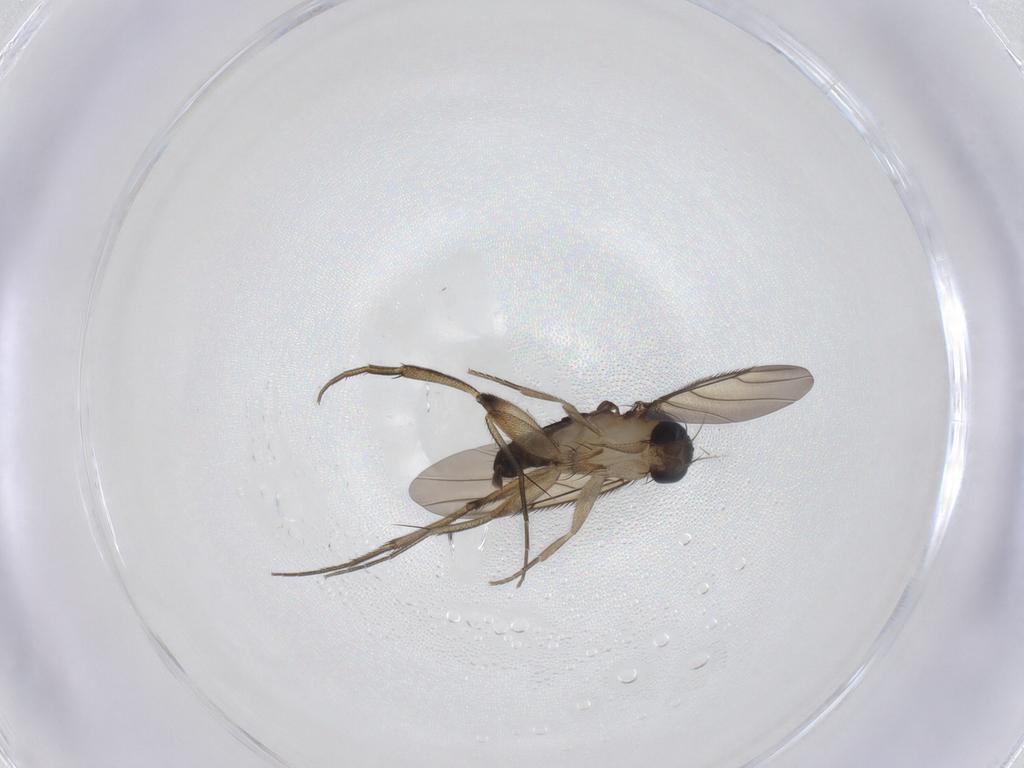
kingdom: Animalia
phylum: Arthropoda
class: Insecta
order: Diptera
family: Phoridae
